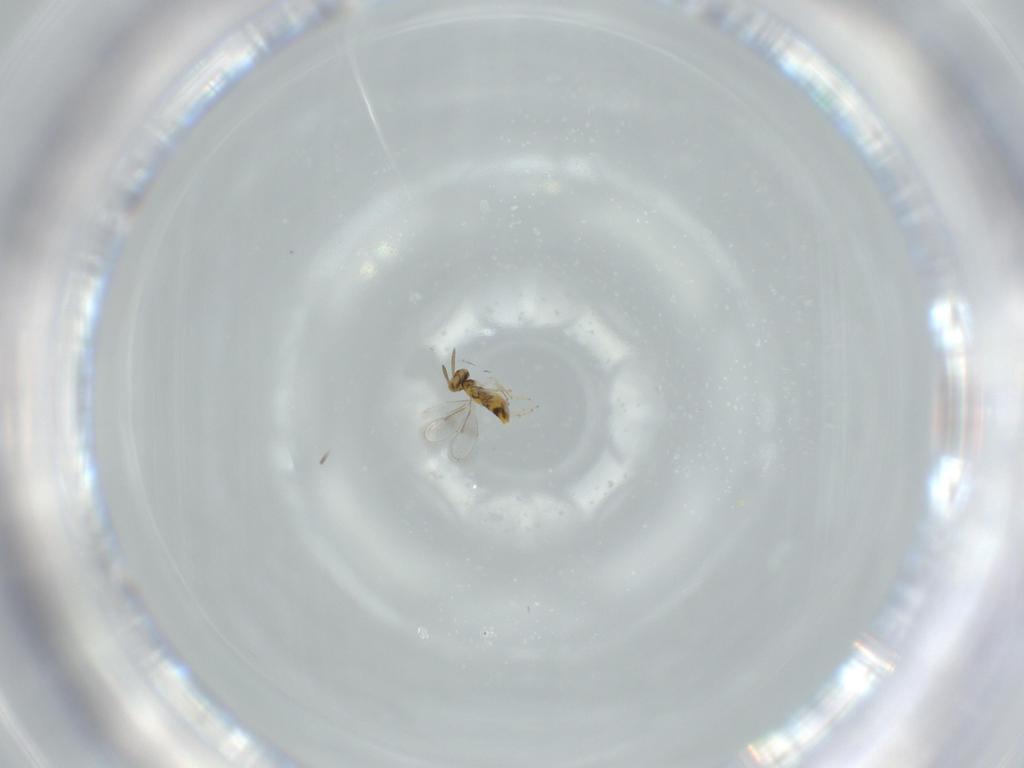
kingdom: Animalia
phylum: Arthropoda
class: Insecta
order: Hymenoptera
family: Aphelinidae
